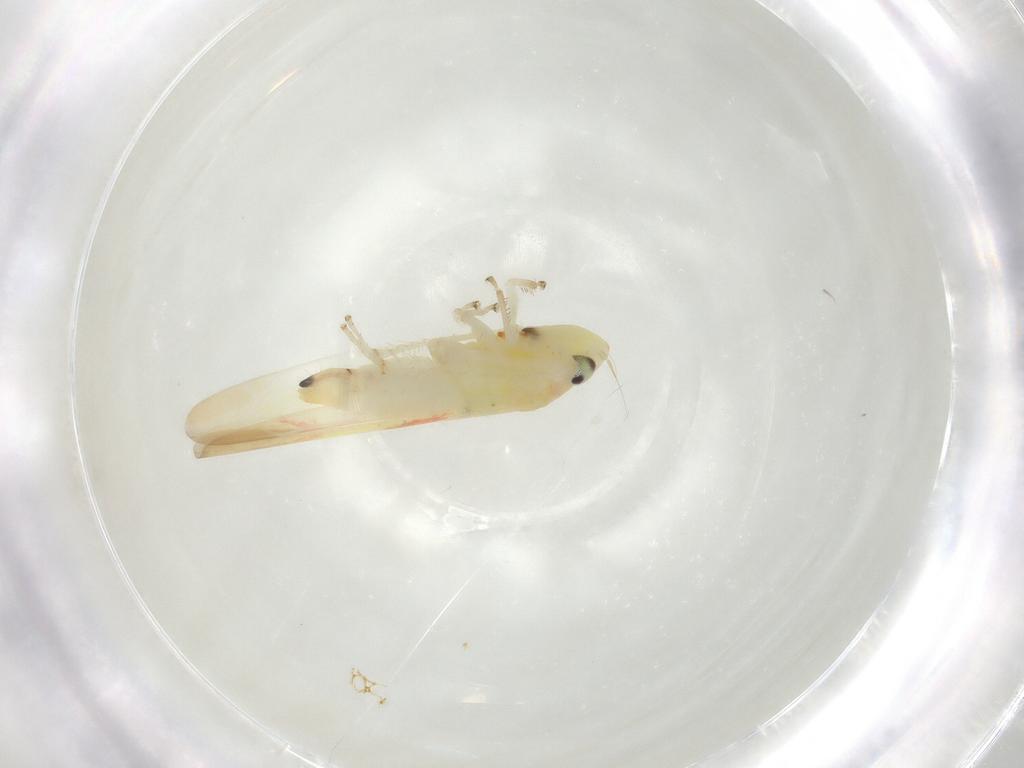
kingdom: Animalia
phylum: Arthropoda
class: Insecta
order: Hemiptera
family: Cicadellidae
